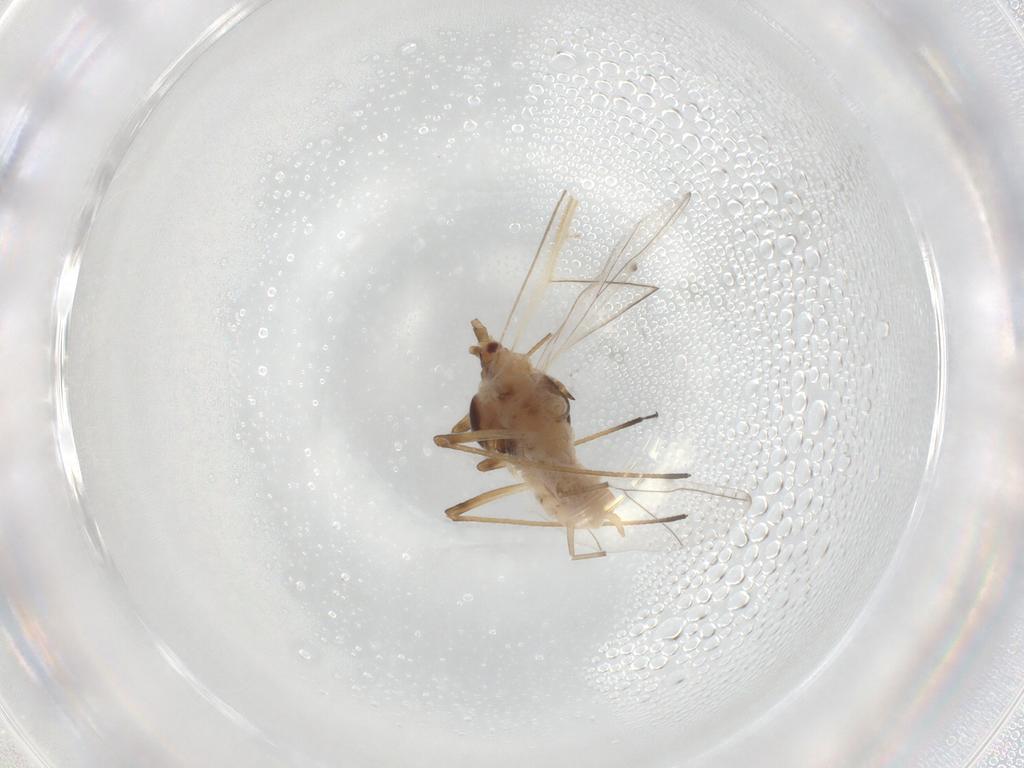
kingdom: Animalia
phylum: Arthropoda
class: Insecta
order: Hemiptera
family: Aphididae
